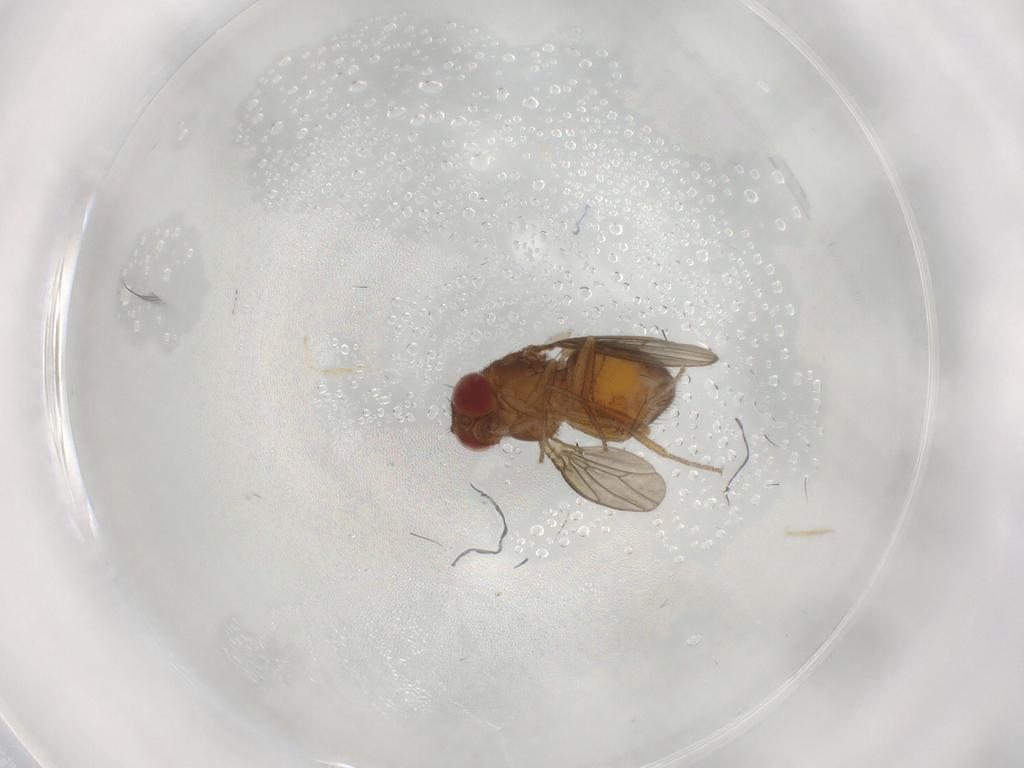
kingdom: Animalia
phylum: Arthropoda
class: Insecta
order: Diptera
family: Drosophilidae
